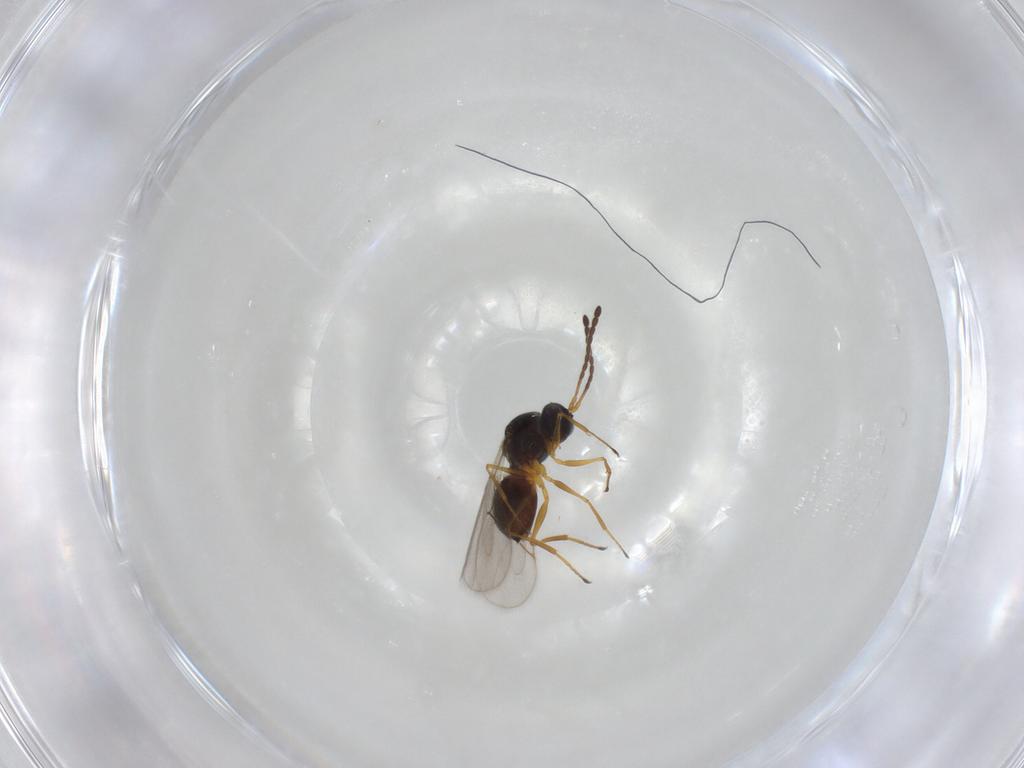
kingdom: Animalia
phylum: Arthropoda
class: Insecta
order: Hymenoptera
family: Figitidae
